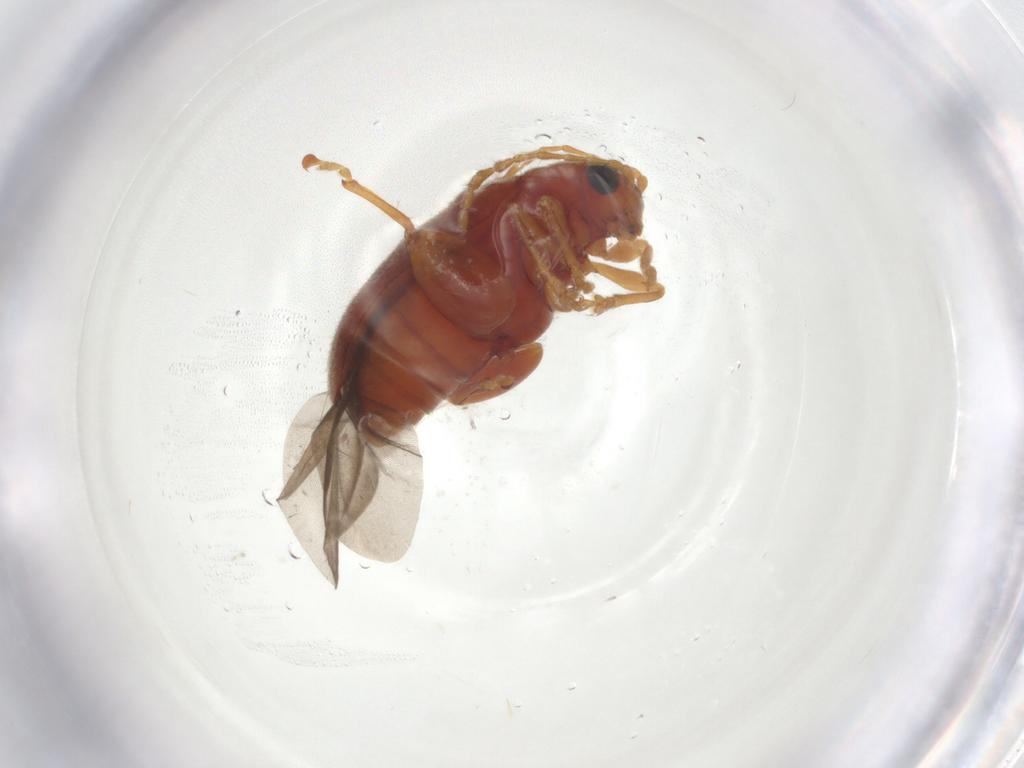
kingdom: Animalia
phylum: Arthropoda
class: Insecta
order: Coleoptera
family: Chrysomelidae
